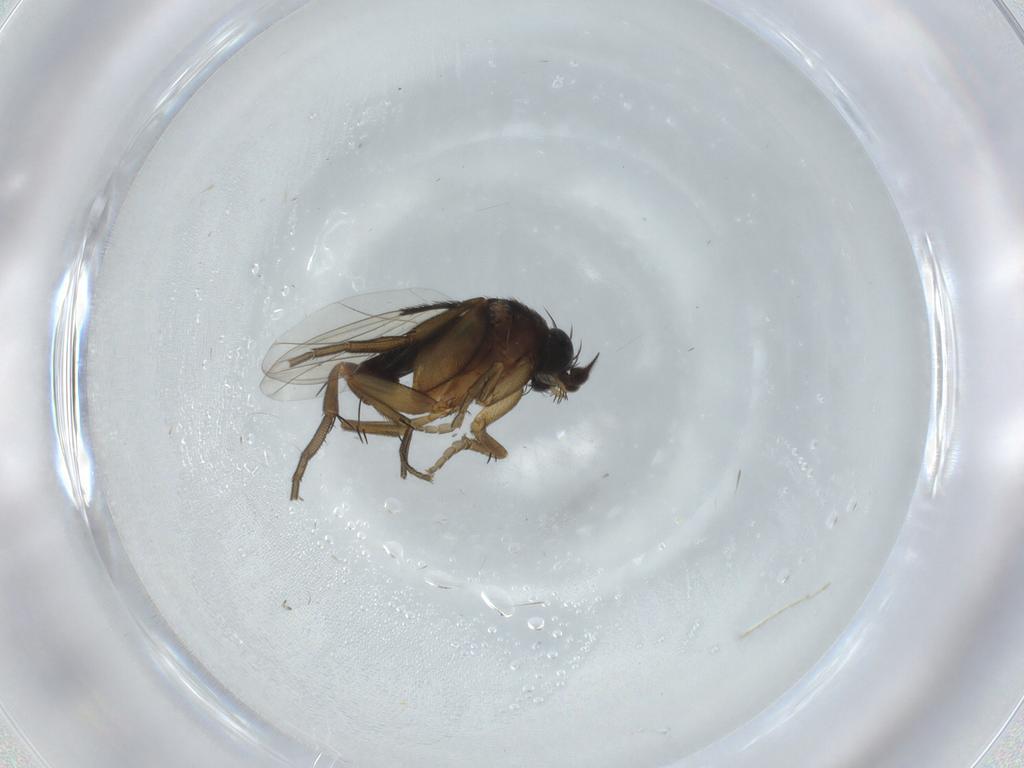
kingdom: Animalia
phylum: Arthropoda
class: Insecta
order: Diptera
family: Phoridae
